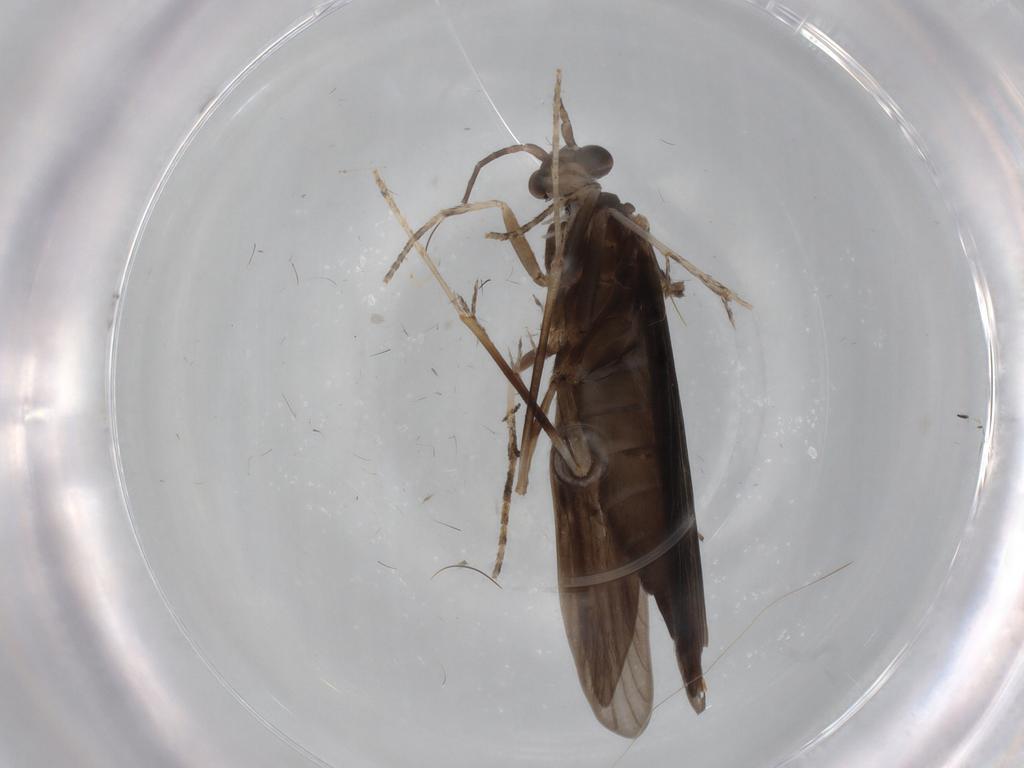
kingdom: Animalia
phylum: Arthropoda
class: Insecta
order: Trichoptera
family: Xiphocentronidae
